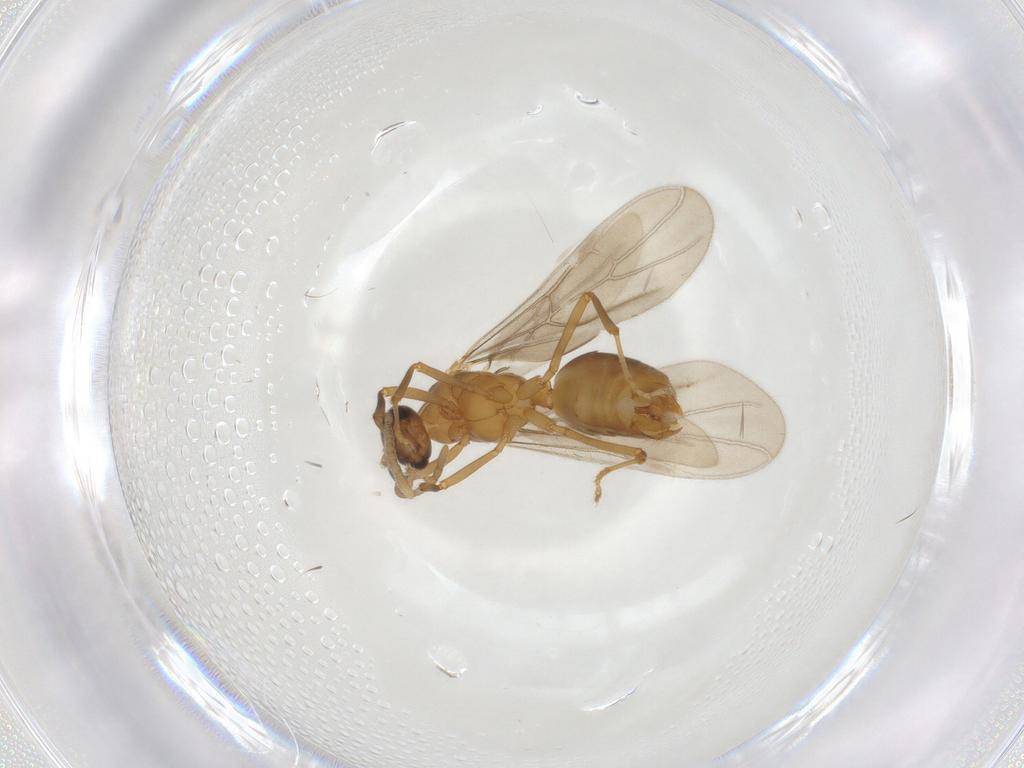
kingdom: Animalia
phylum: Arthropoda
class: Insecta
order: Hymenoptera
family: Formicidae
